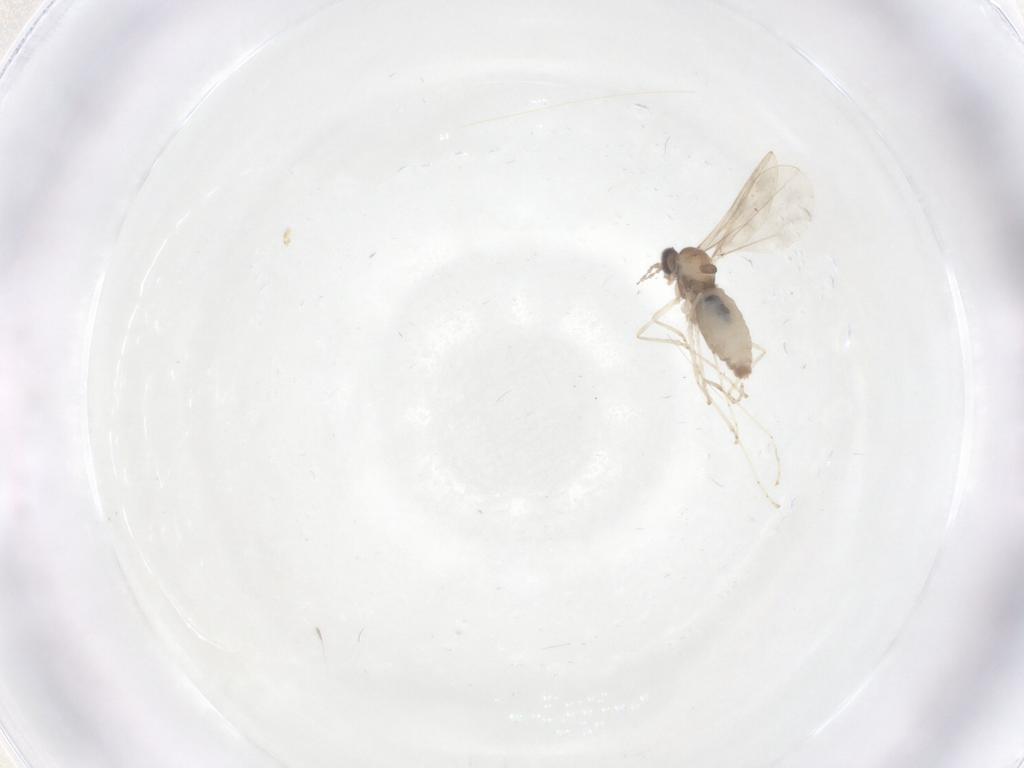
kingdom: Animalia
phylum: Arthropoda
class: Insecta
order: Diptera
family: Cecidomyiidae
